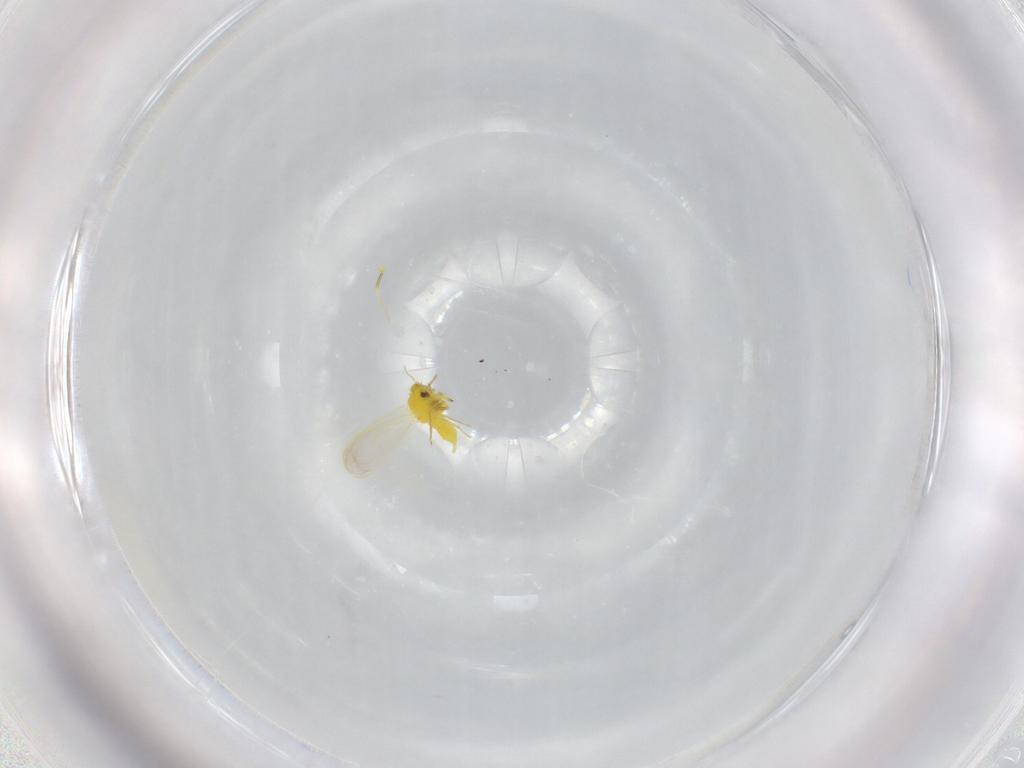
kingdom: Animalia
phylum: Arthropoda
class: Insecta
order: Hemiptera
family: Aleyrodidae
